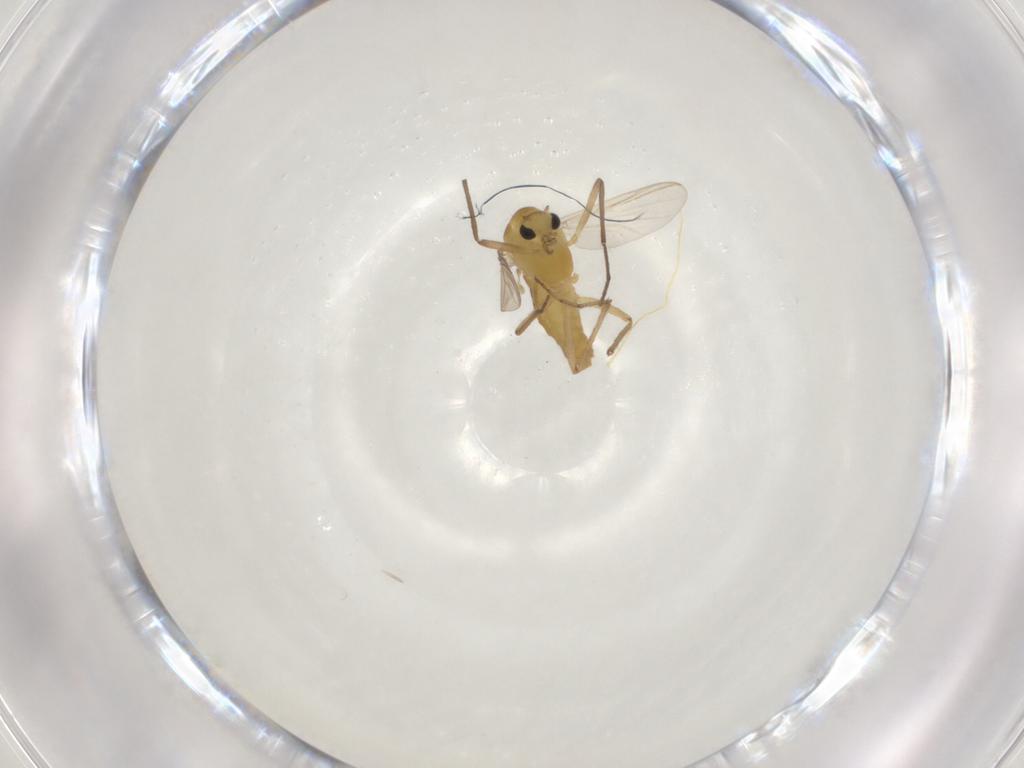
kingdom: Animalia
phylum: Arthropoda
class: Insecta
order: Diptera
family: Chironomidae
